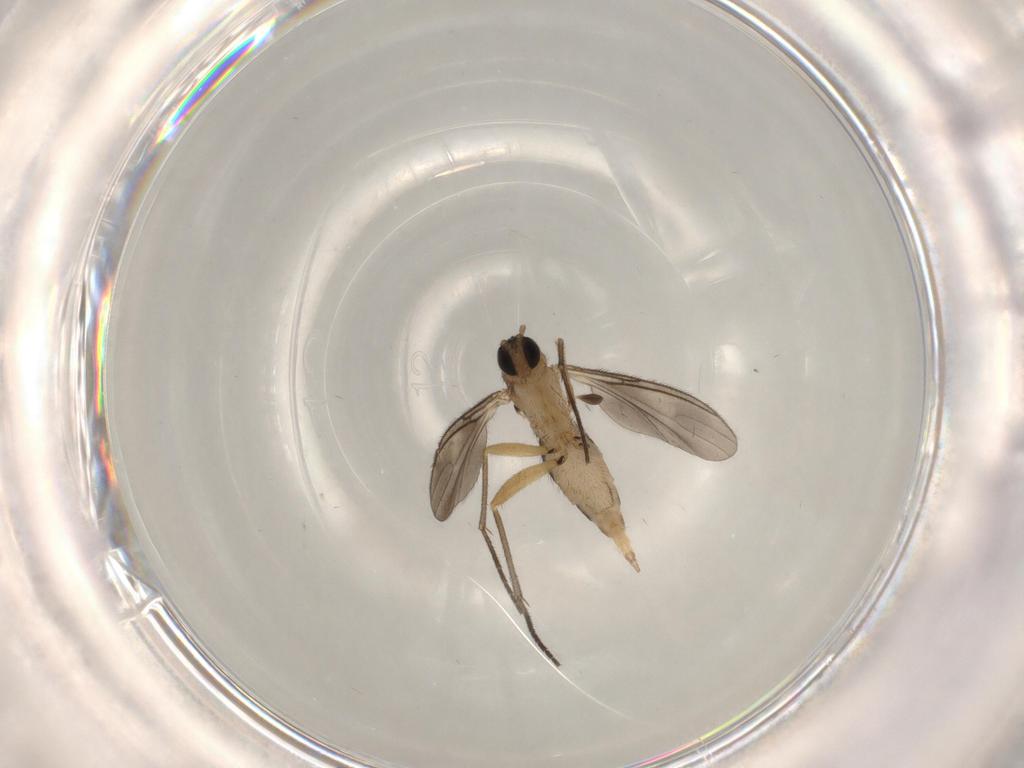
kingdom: Animalia
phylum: Arthropoda
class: Insecta
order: Diptera
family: Sciaridae
